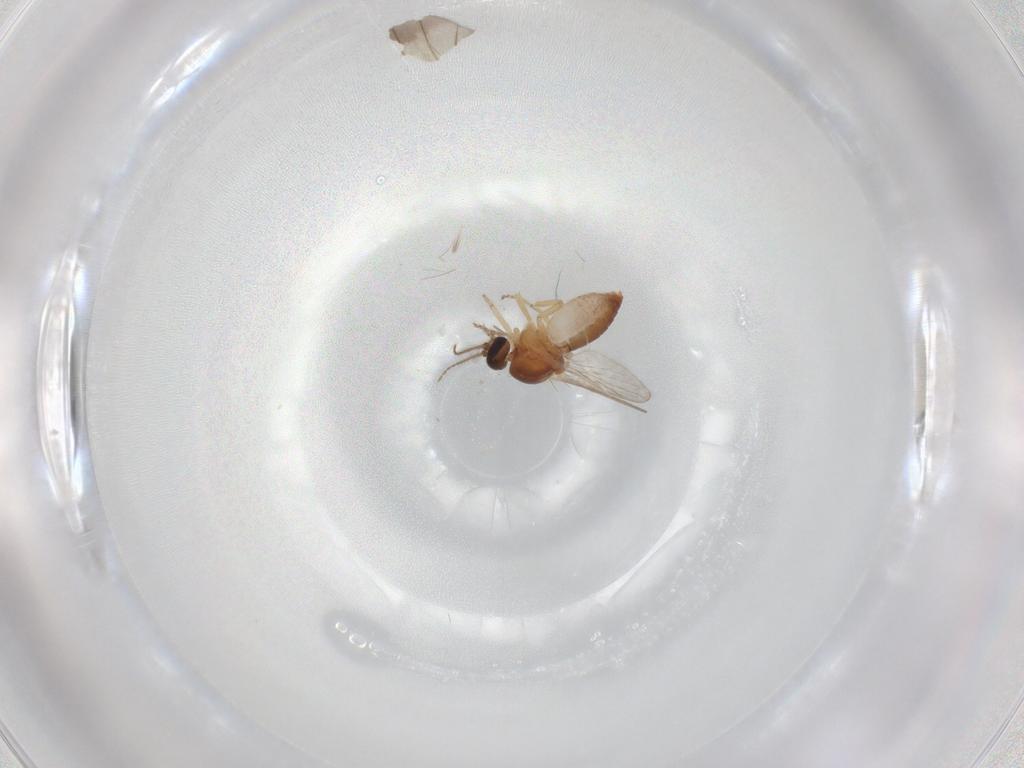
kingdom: Animalia
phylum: Arthropoda
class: Insecta
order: Diptera
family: Ceratopogonidae
